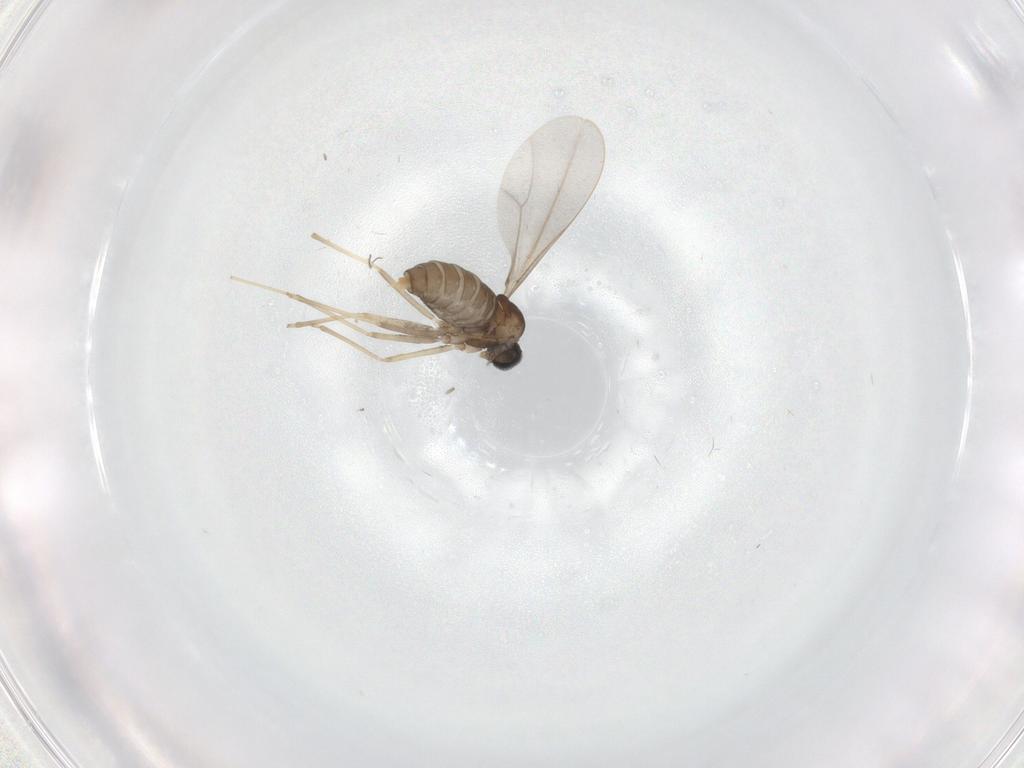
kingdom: Animalia
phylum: Arthropoda
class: Insecta
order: Diptera
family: Cecidomyiidae
